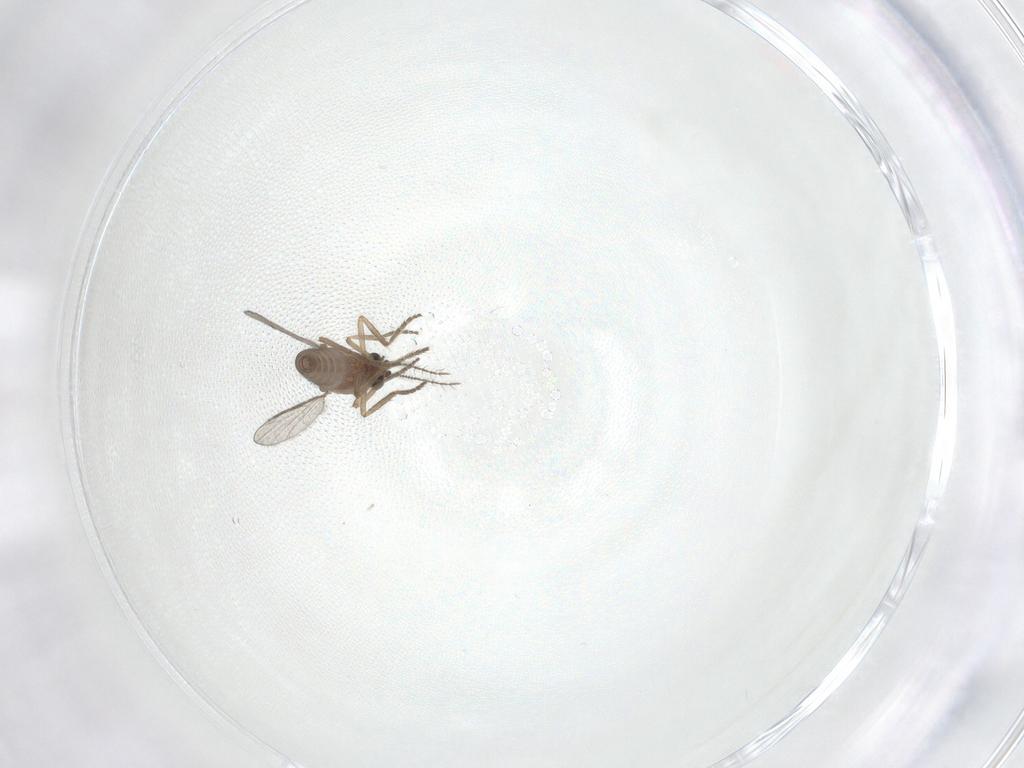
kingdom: Animalia
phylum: Arthropoda
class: Insecta
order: Diptera
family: Ceratopogonidae
